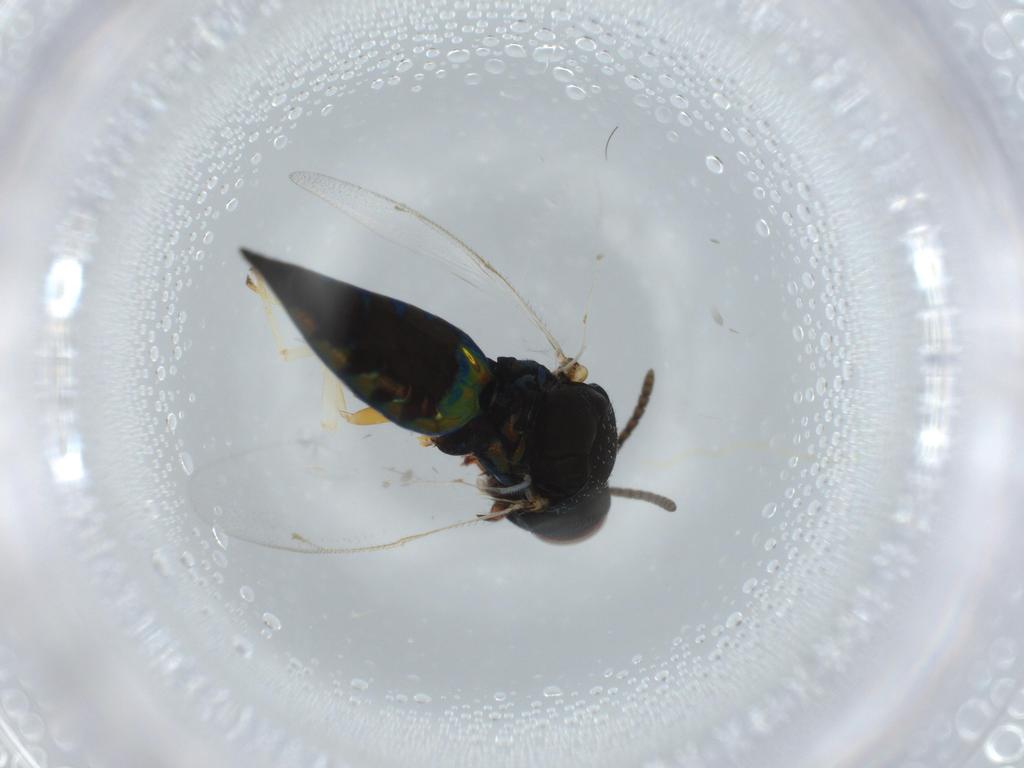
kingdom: Animalia
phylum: Arthropoda
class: Insecta
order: Hymenoptera
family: Pteromalidae
